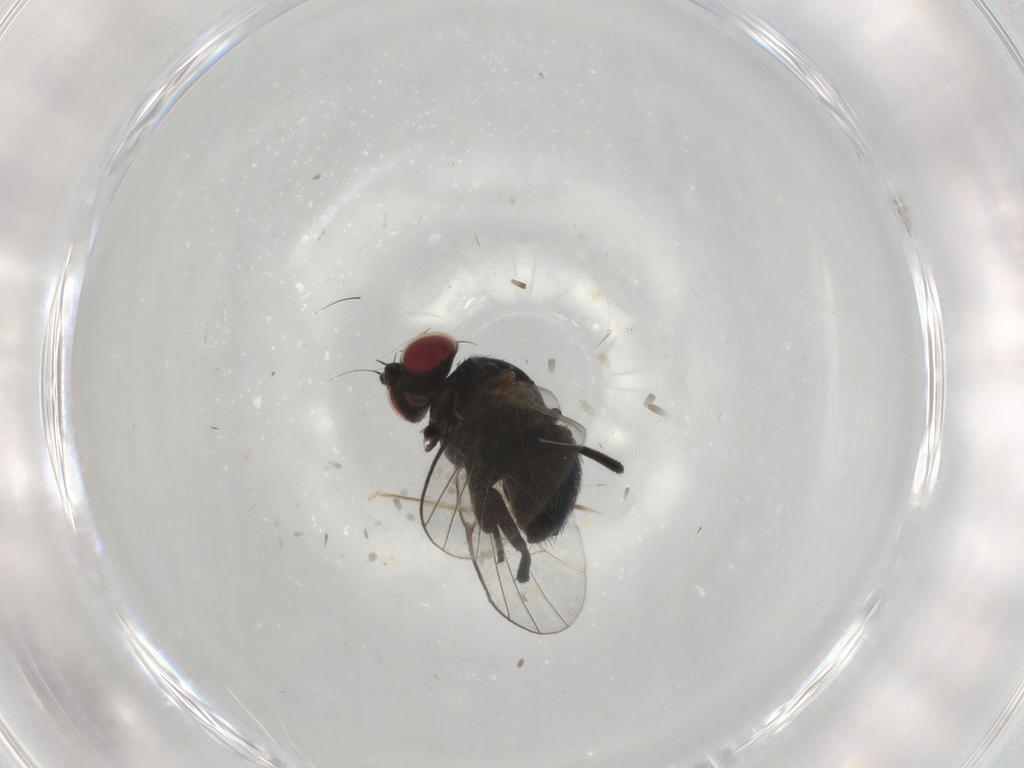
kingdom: Animalia
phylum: Arthropoda
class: Insecta
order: Diptera
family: Agromyzidae
